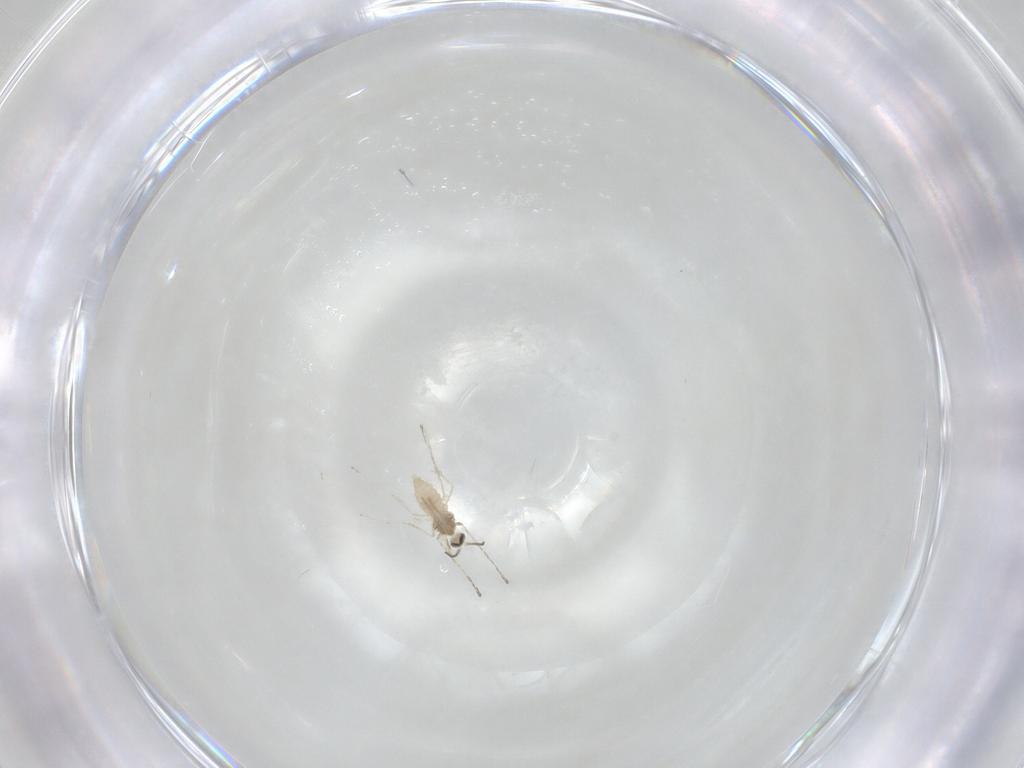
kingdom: Animalia
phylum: Arthropoda
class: Insecta
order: Diptera
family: Cecidomyiidae
